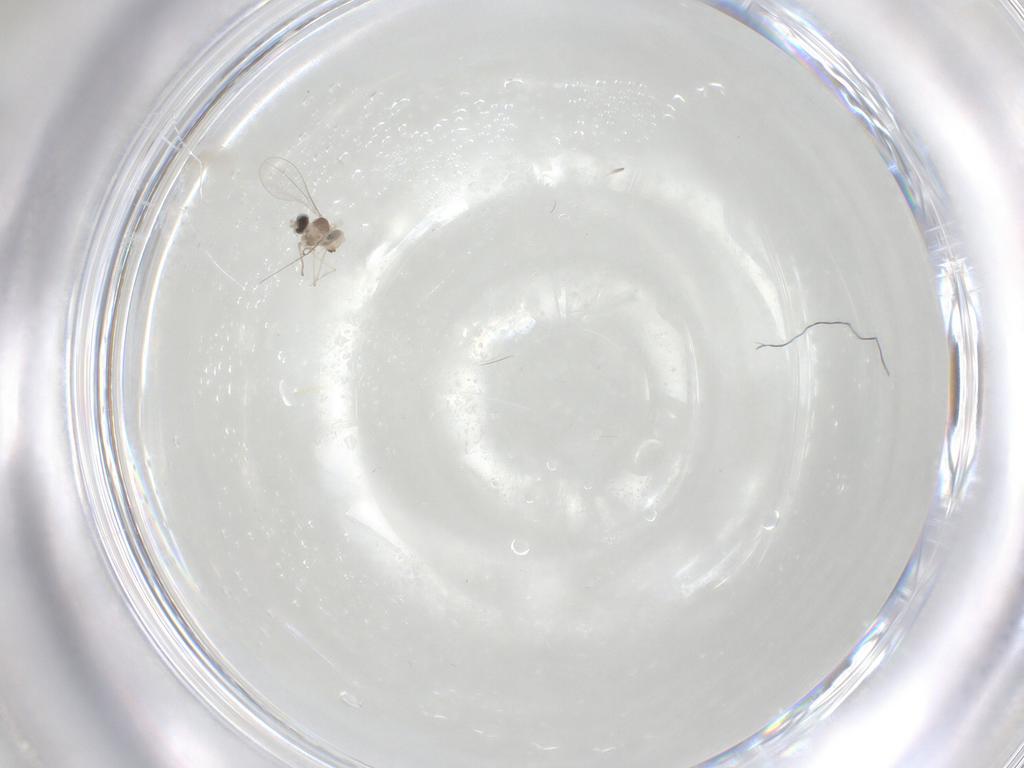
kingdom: Animalia
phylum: Arthropoda
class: Insecta
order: Diptera
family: Cecidomyiidae
